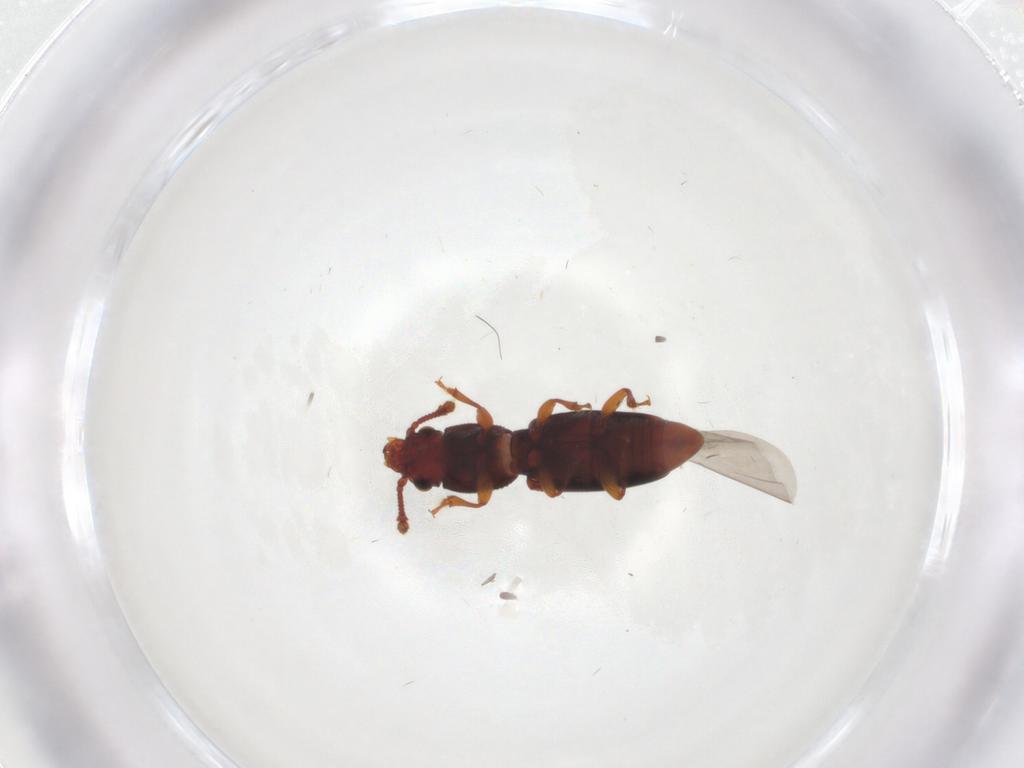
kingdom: Animalia
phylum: Arthropoda
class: Insecta
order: Coleoptera
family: Monotomidae
